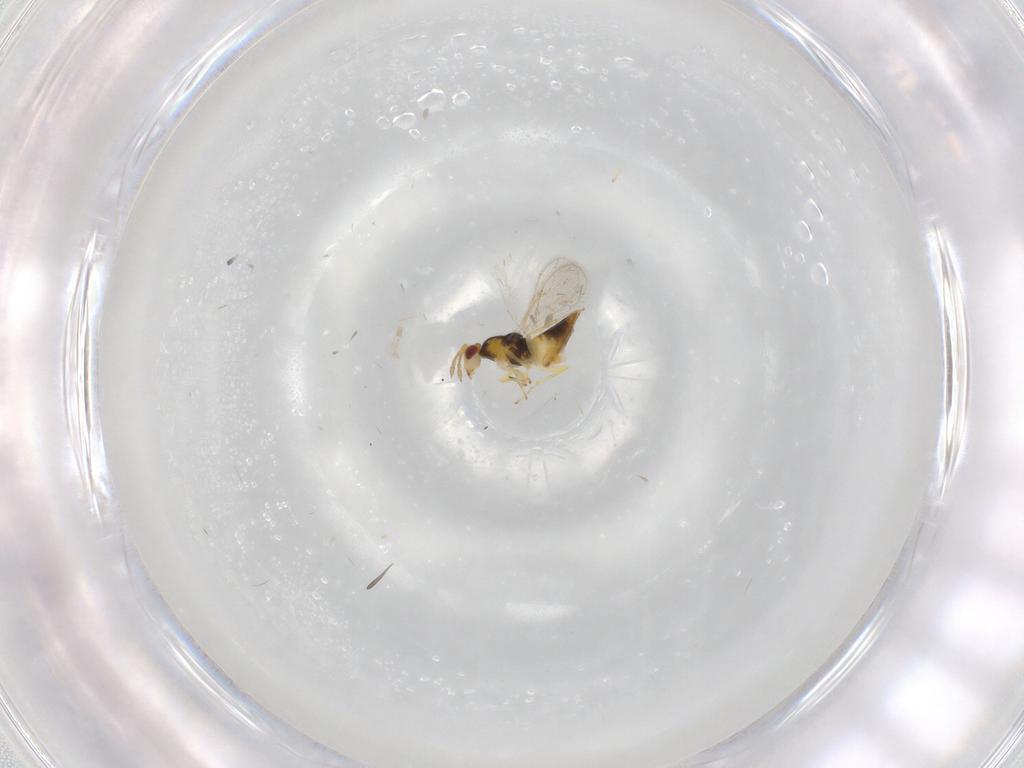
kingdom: Animalia
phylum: Arthropoda
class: Insecta
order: Hymenoptera
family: Eulophidae
